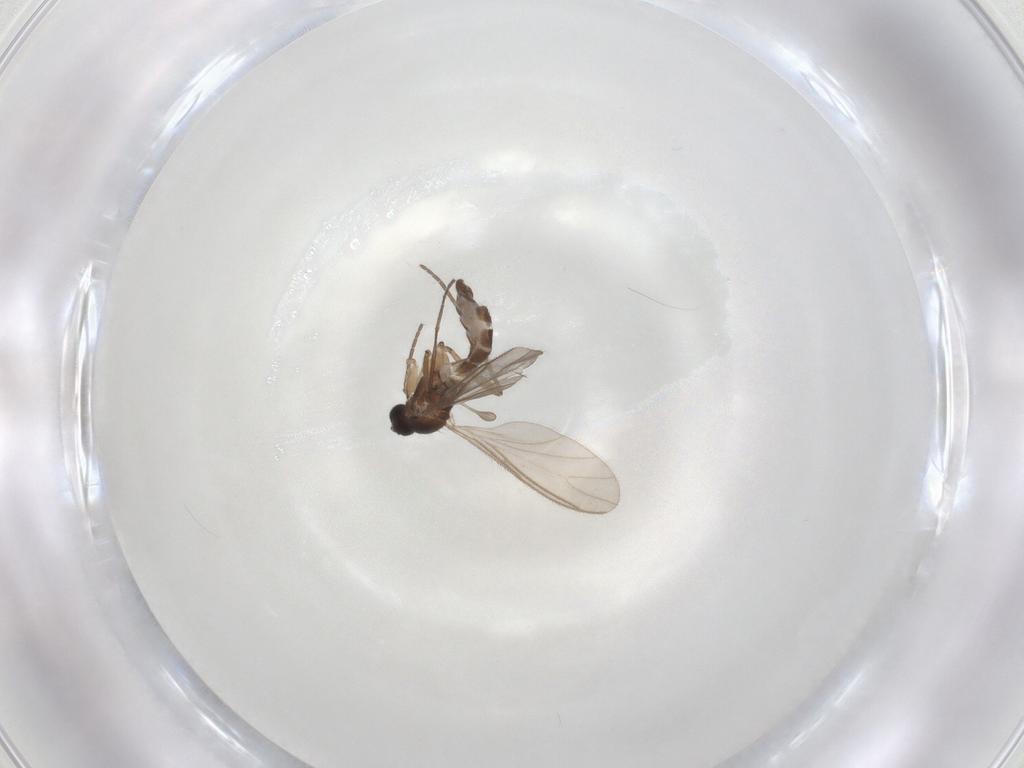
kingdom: Animalia
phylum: Arthropoda
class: Insecta
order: Diptera
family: Sciaridae
